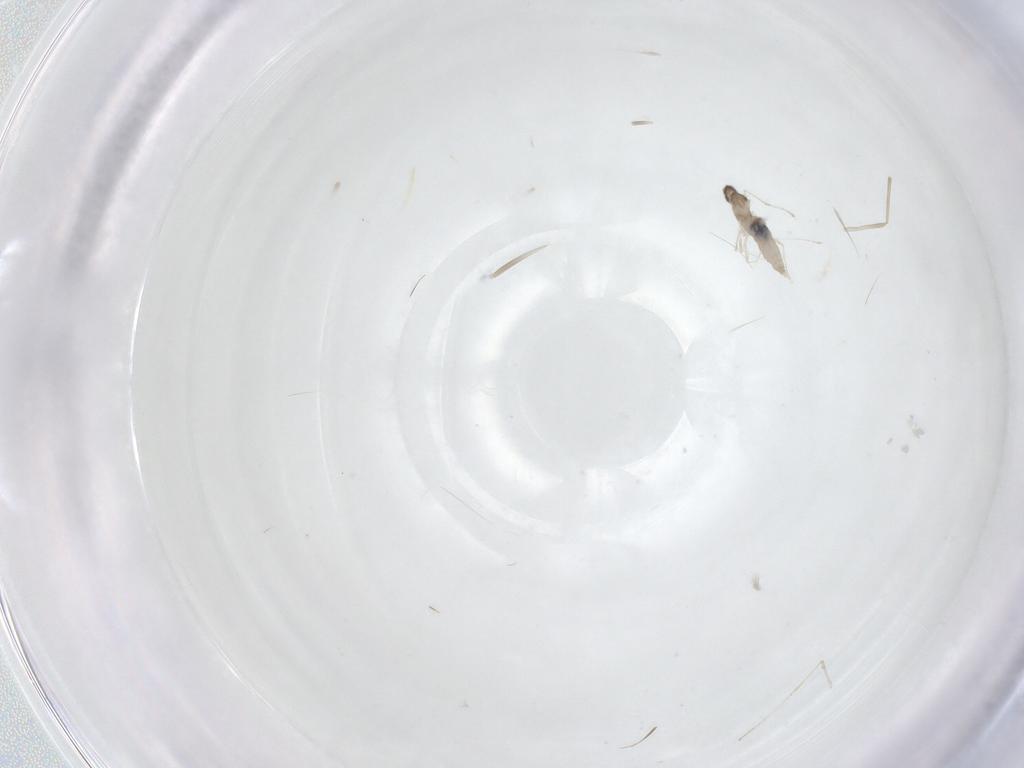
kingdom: Animalia
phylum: Arthropoda
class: Insecta
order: Diptera
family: Cecidomyiidae
